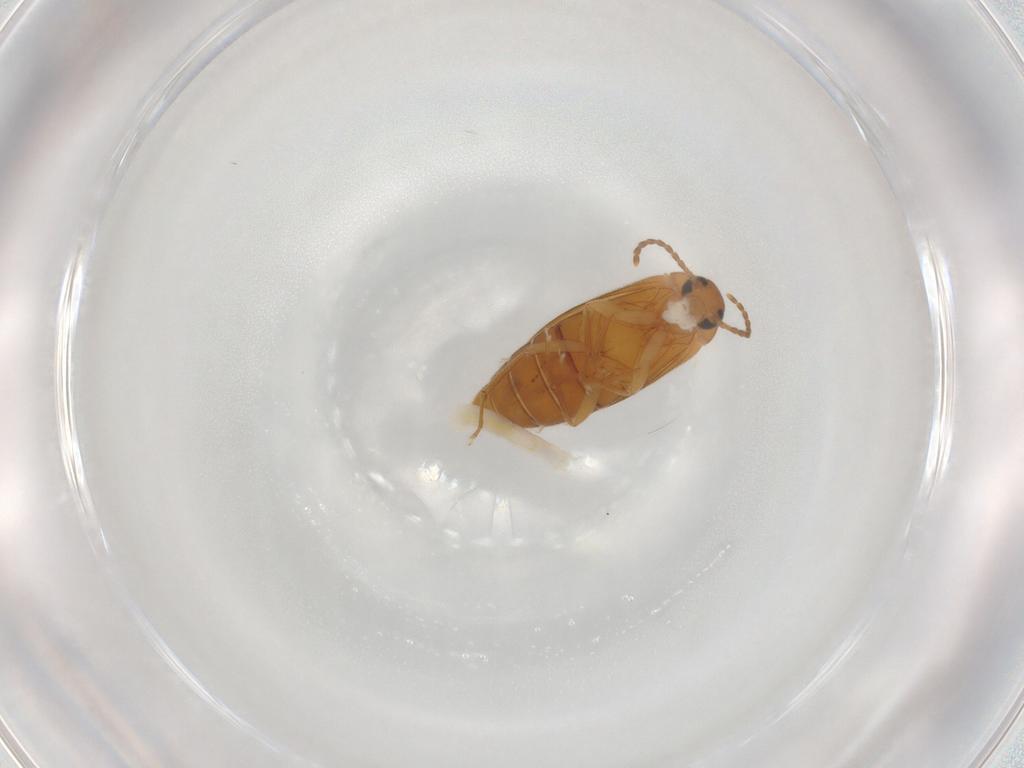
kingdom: Animalia
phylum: Arthropoda
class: Insecta
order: Coleoptera
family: Scraptiidae
